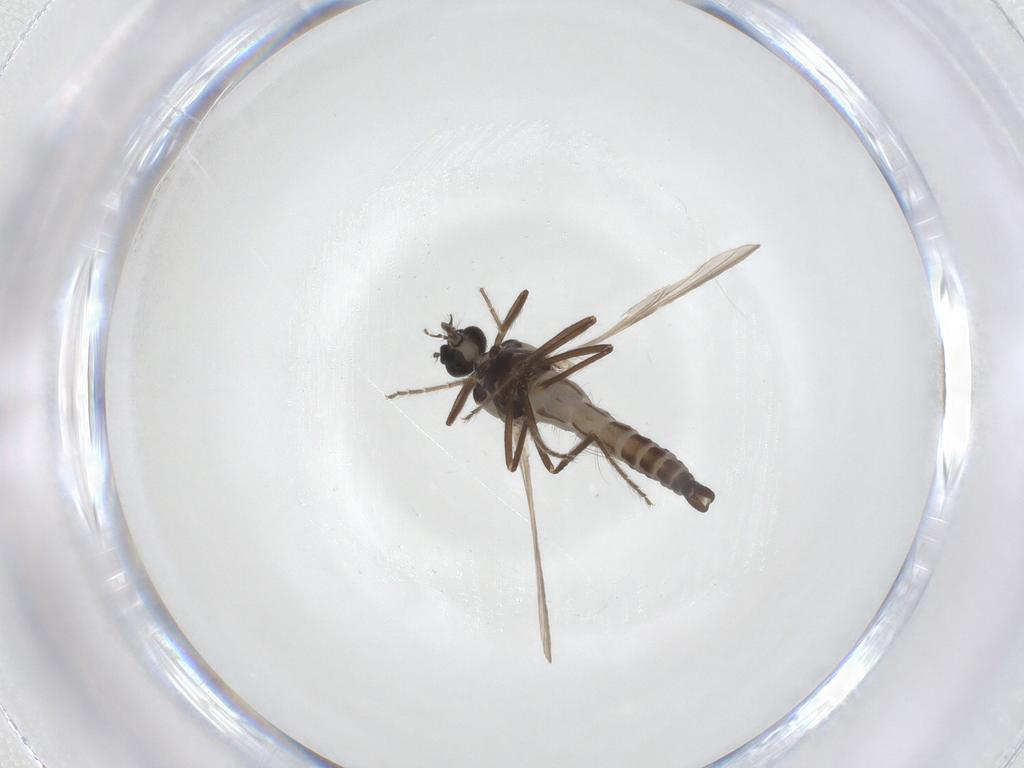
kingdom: Animalia
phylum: Arthropoda
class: Insecta
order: Diptera
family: Ceratopogonidae
